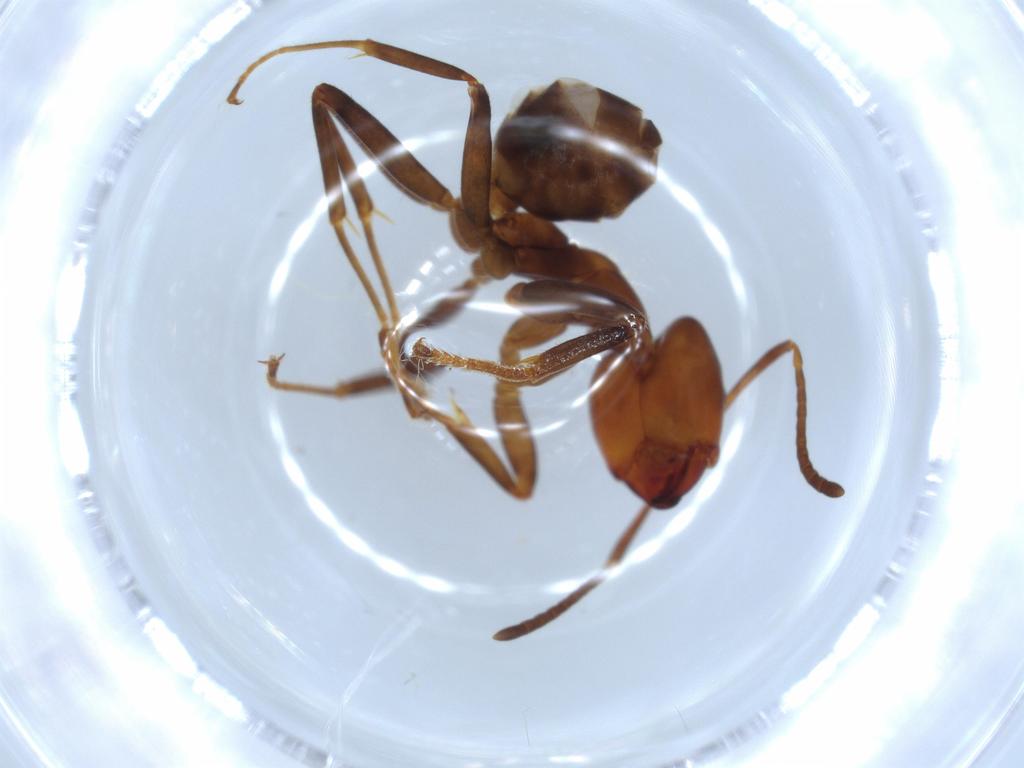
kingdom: Animalia
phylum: Arthropoda
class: Insecta
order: Hymenoptera
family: Formicidae
